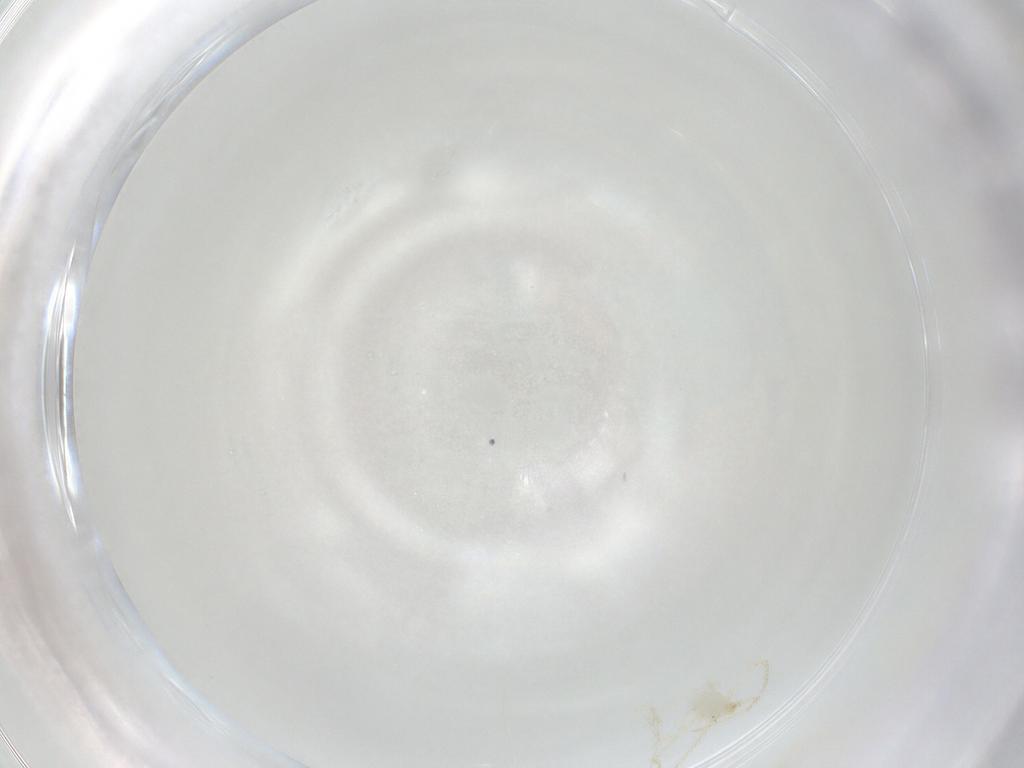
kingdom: Animalia
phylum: Arthropoda
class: Arachnida
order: Trombidiformes
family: Erythraeidae
